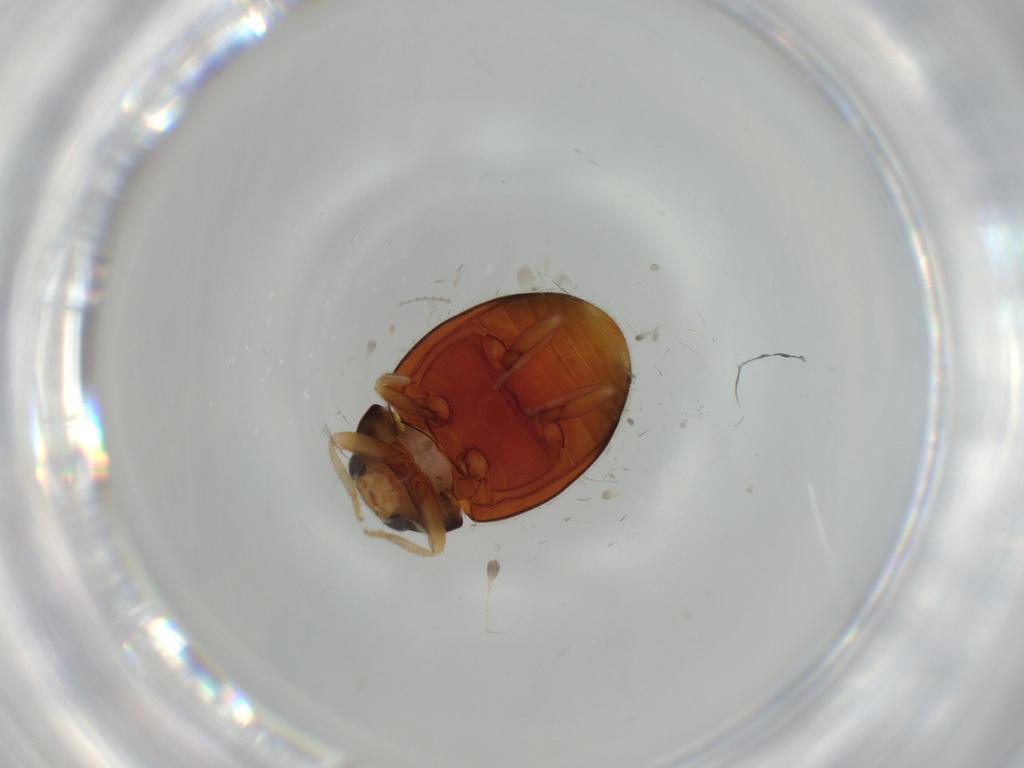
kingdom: Animalia
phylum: Arthropoda
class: Insecta
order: Coleoptera
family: Coccinellidae
